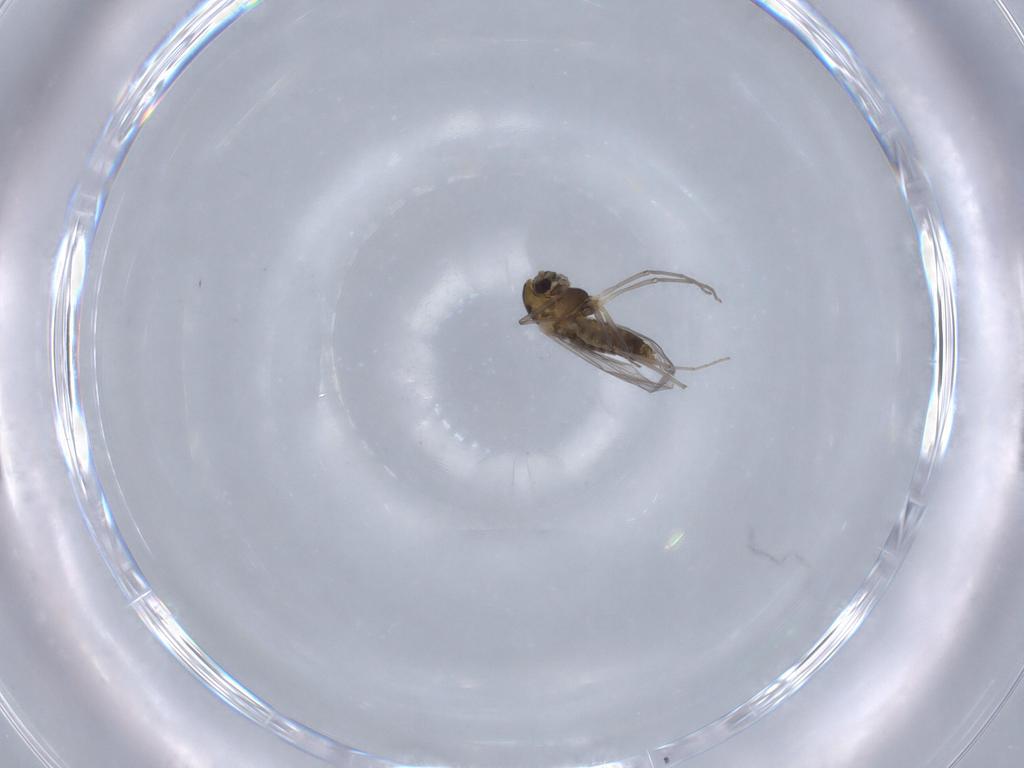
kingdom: Animalia
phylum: Arthropoda
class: Insecta
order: Diptera
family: Chironomidae
